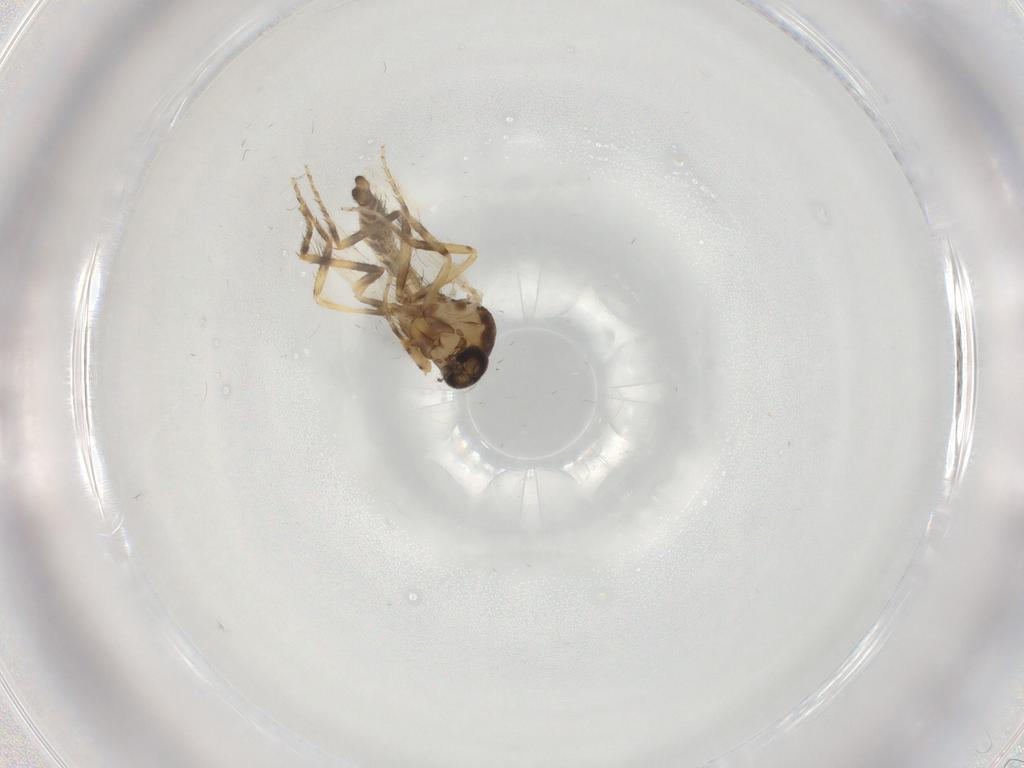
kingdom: Animalia
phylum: Arthropoda
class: Insecta
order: Diptera
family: Ceratopogonidae
